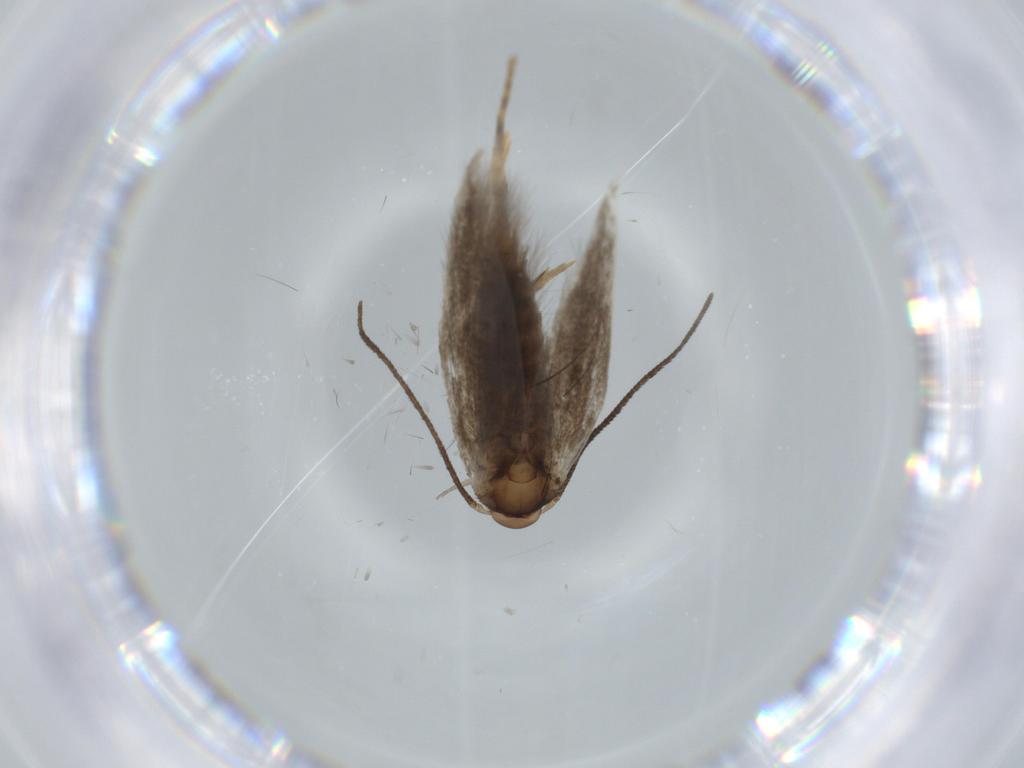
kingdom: Animalia
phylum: Arthropoda
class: Insecta
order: Lepidoptera
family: Elachistidae
